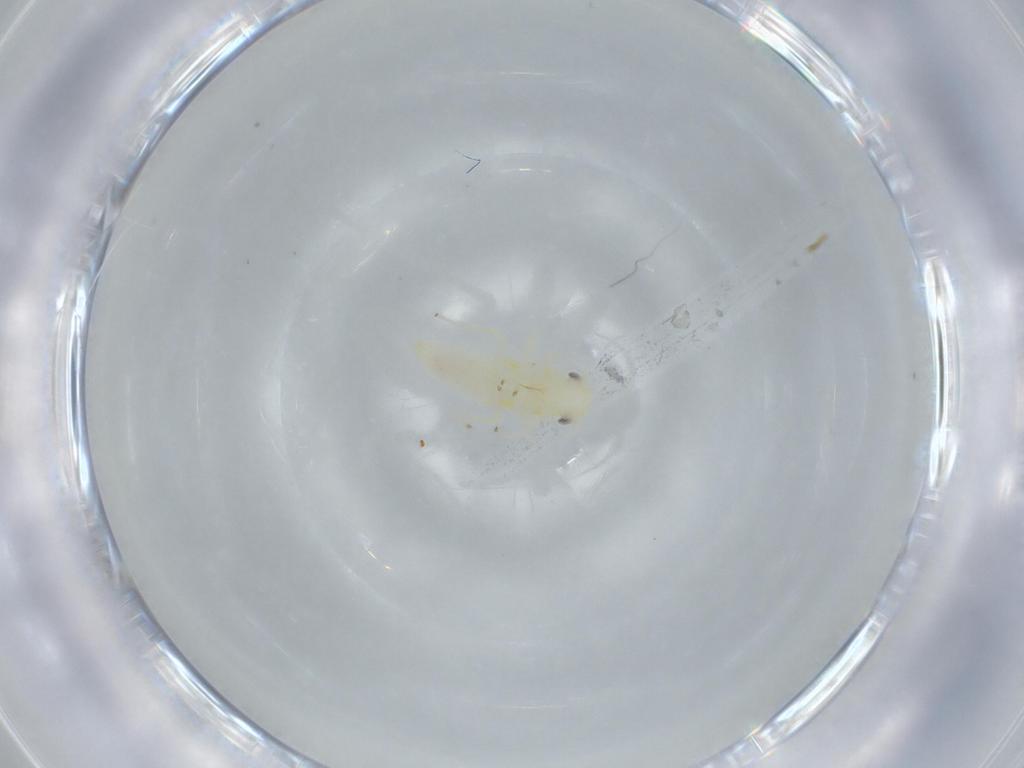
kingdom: Animalia
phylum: Arthropoda
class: Insecta
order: Hemiptera
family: Cicadellidae
